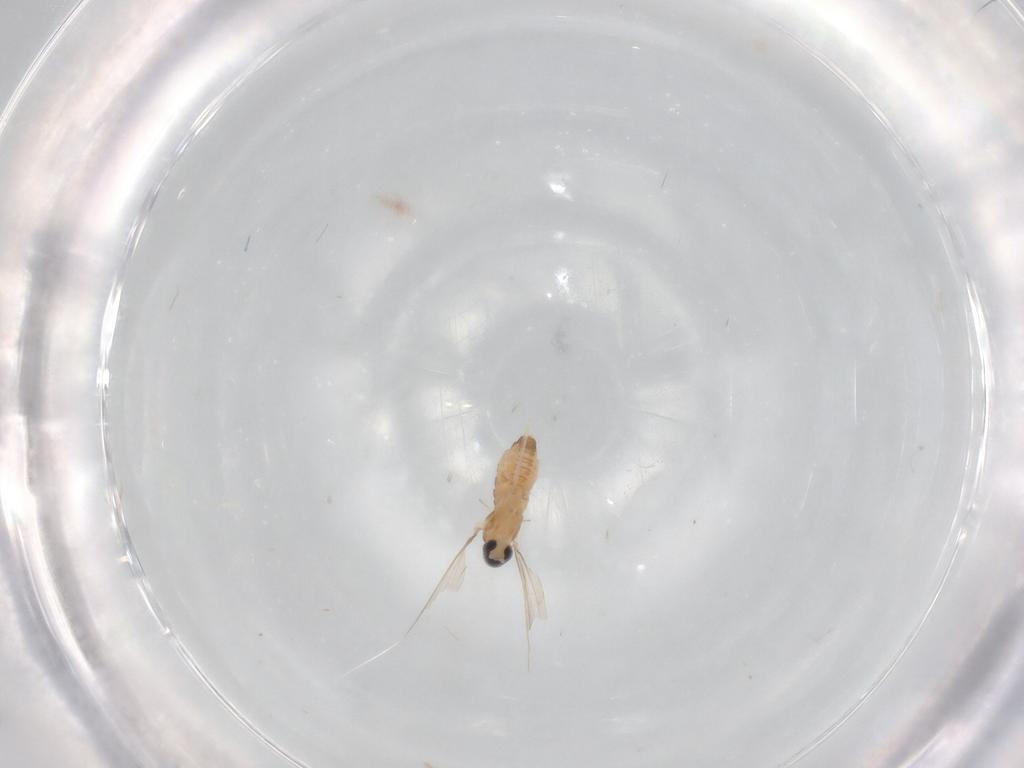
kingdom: Animalia
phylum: Arthropoda
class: Insecta
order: Diptera
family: Cecidomyiidae
